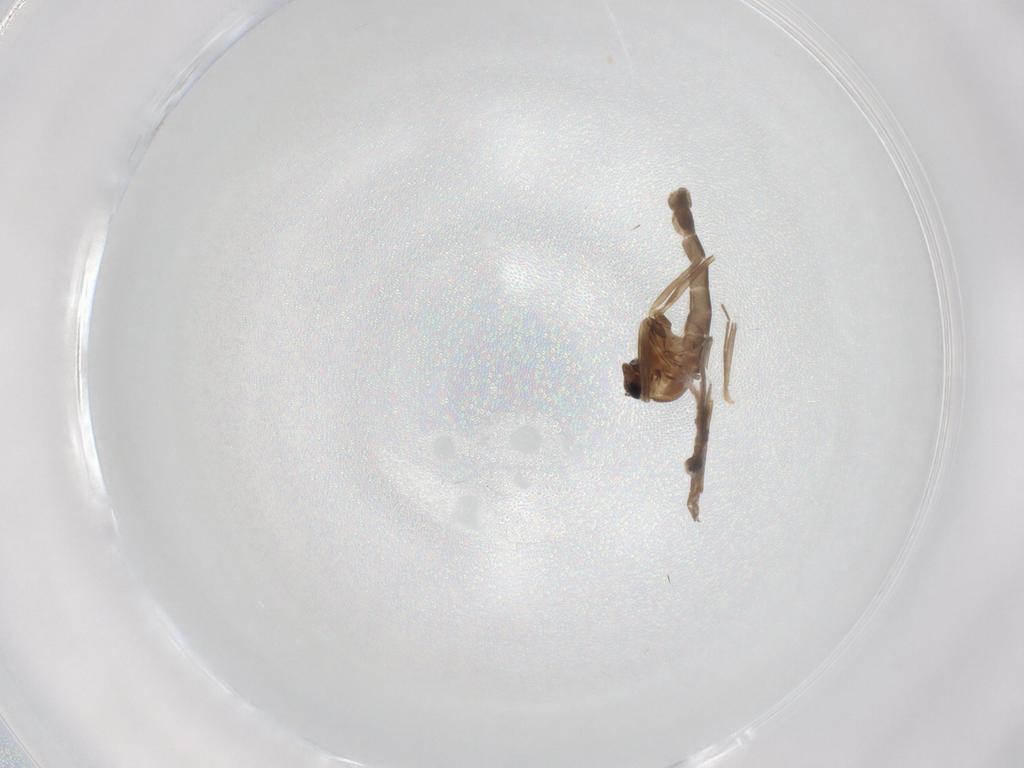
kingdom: Animalia
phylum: Arthropoda
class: Insecta
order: Diptera
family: Chironomidae
